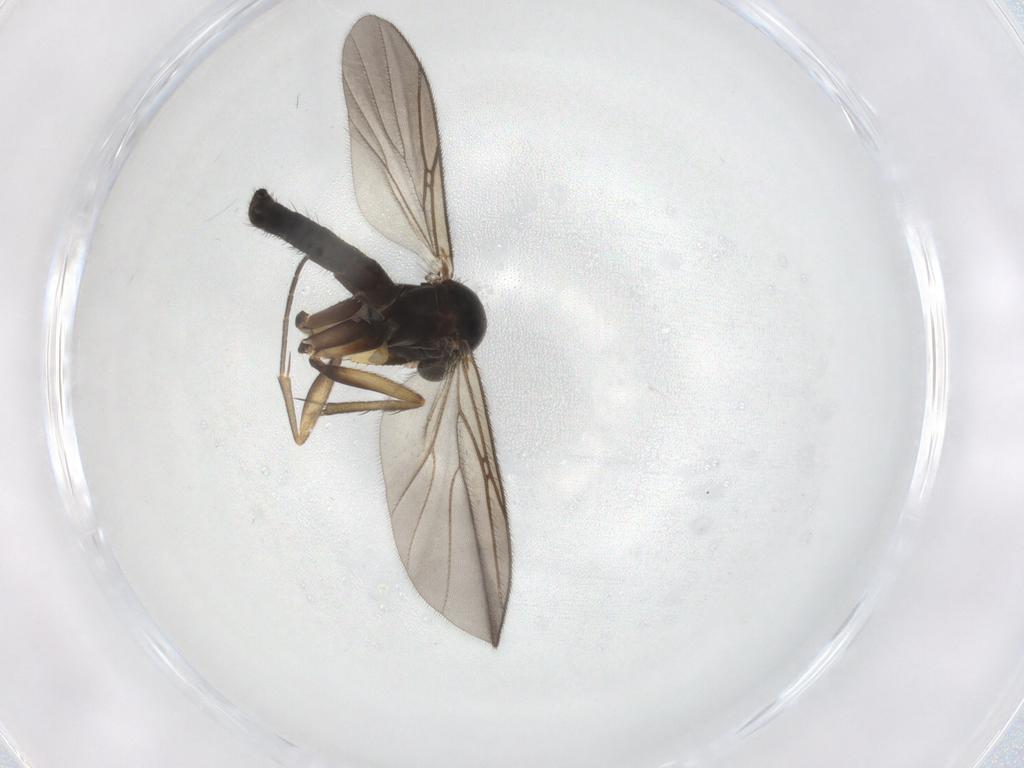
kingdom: Animalia
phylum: Arthropoda
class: Insecta
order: Diptera
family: Mycetophilidae
